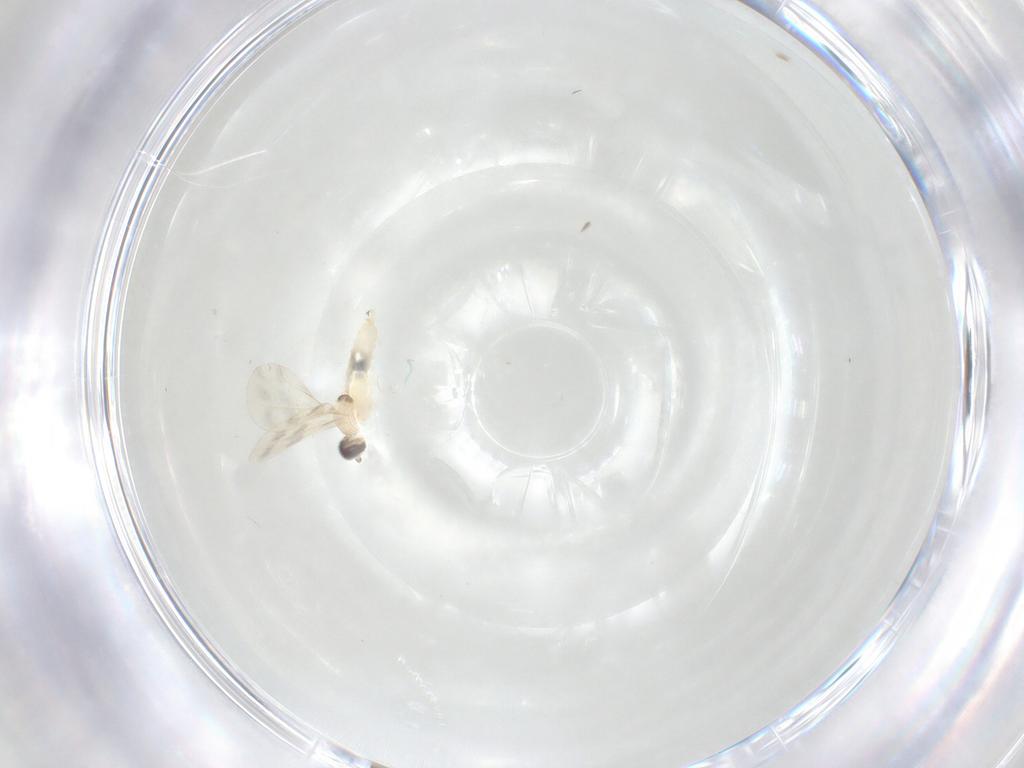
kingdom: Animalia
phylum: Arthropoda
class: Insecta
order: Diptera
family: Cecidomyiidae
